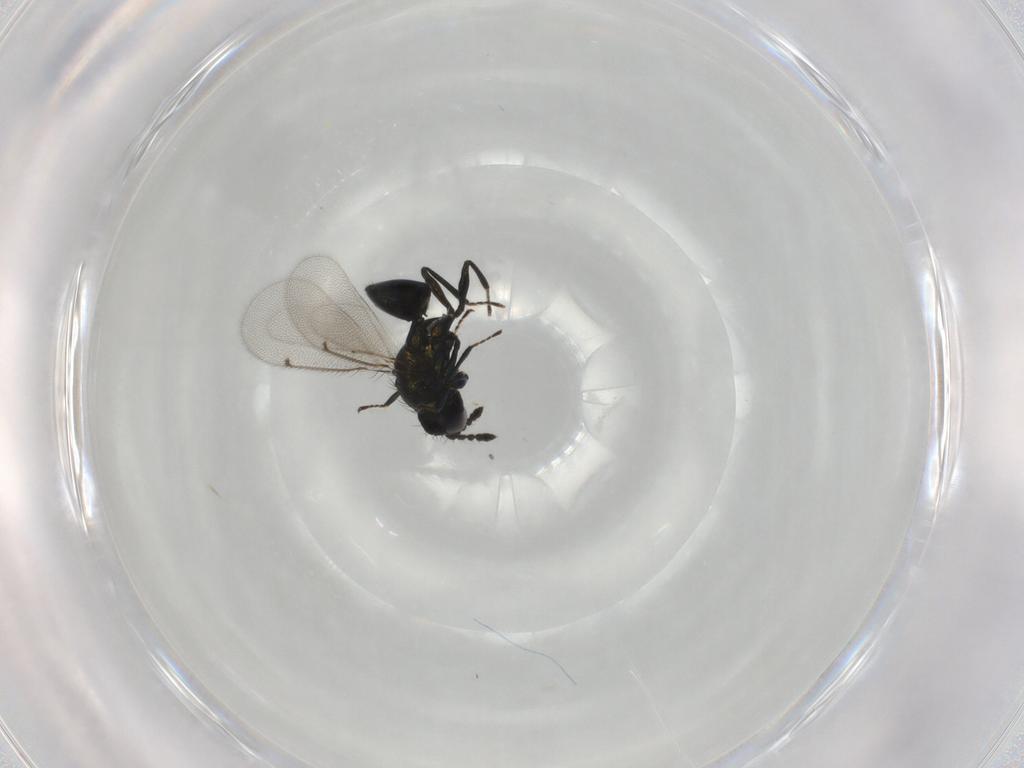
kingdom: Animalia
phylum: Arthropoda
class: Insecta
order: Hymenoptera
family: Eulophidae
